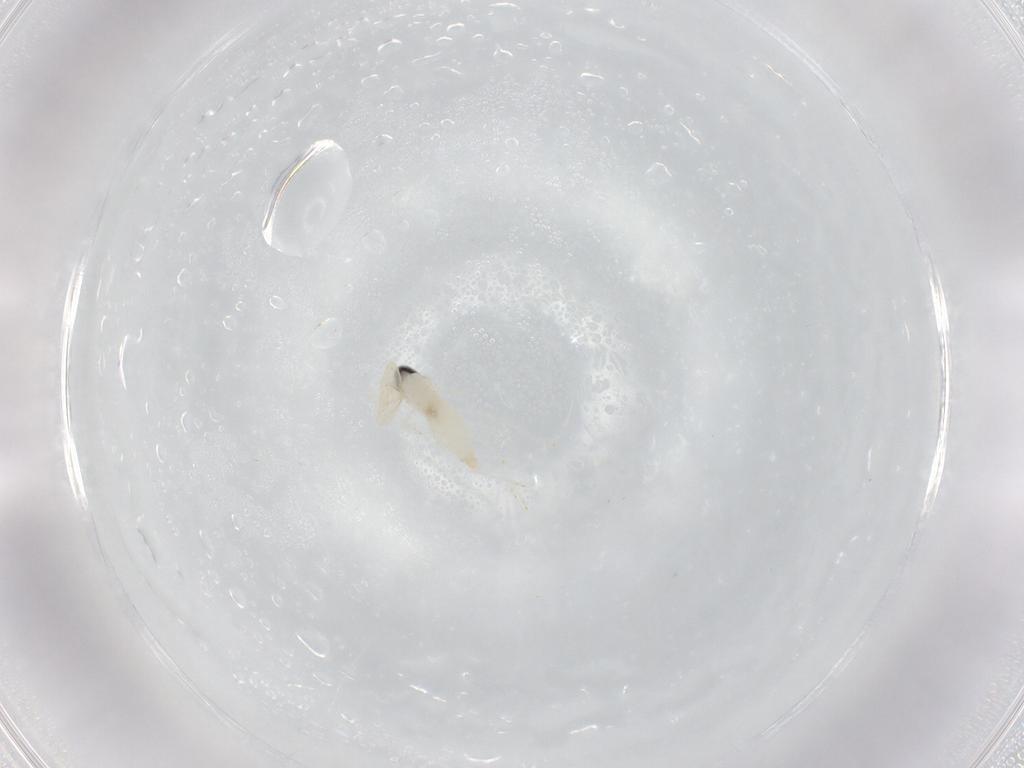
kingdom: Animalia
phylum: Arthropoda
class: Insecta
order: Diptera
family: Cecidomyiidae
